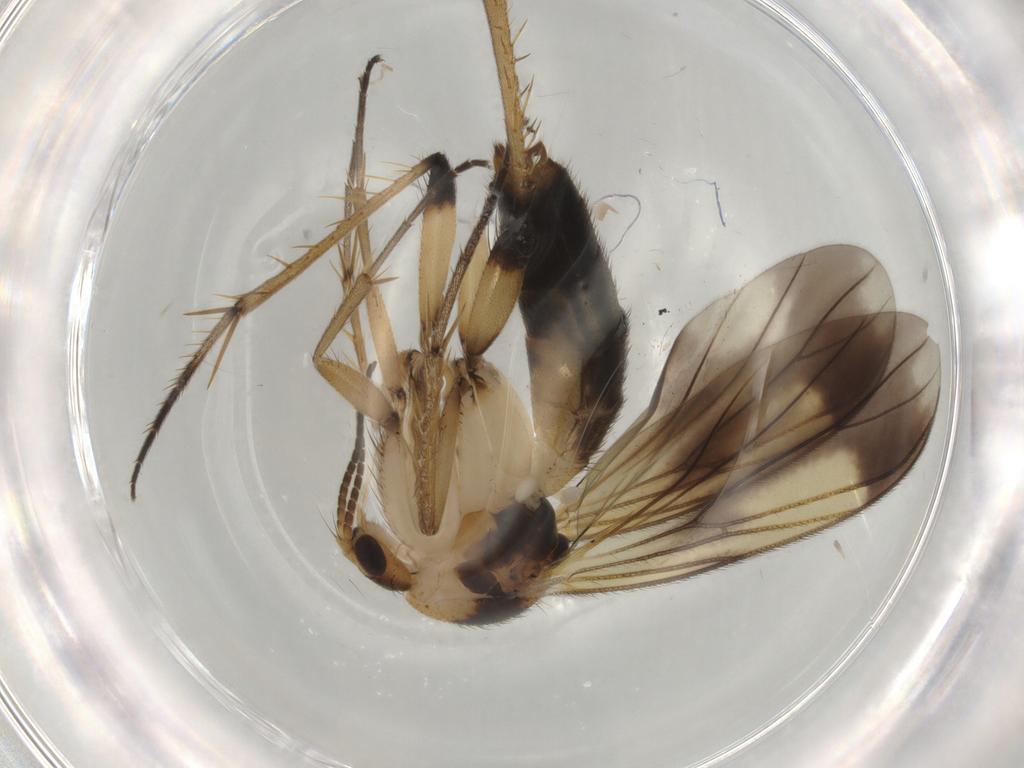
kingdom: Animalia
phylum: Arthropoda
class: Insecta
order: Diptera
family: Mycetophilidae
